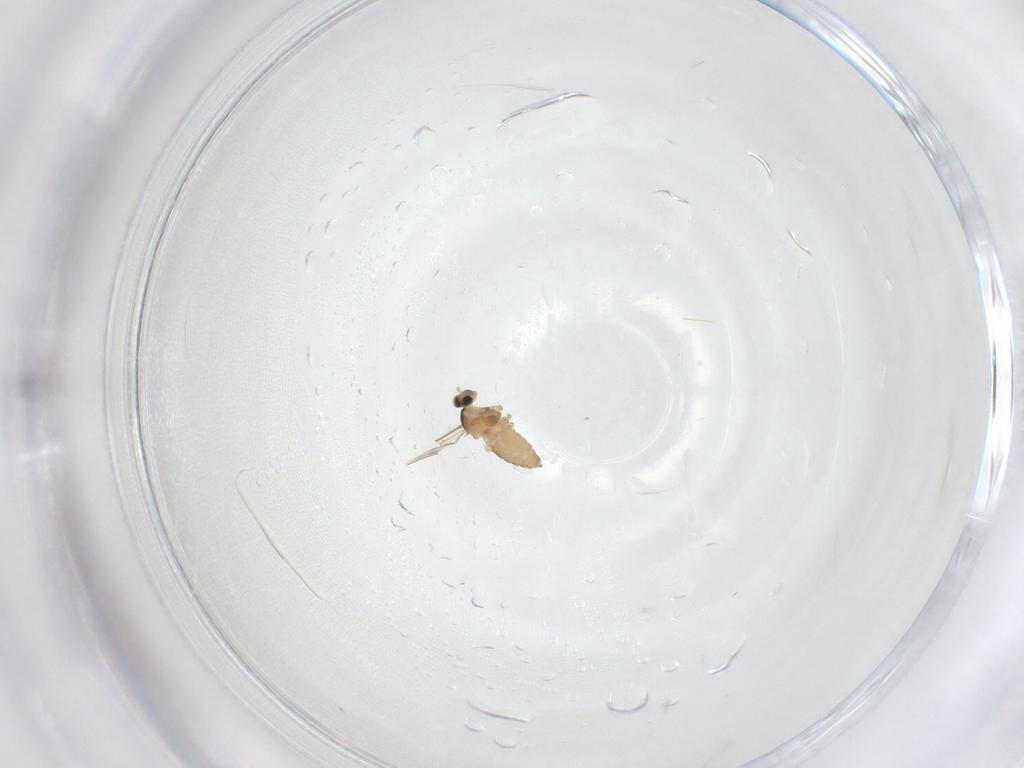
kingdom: Animalia
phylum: Arthropoda
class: Insecta
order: Diptera
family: Cecidomyiidae
